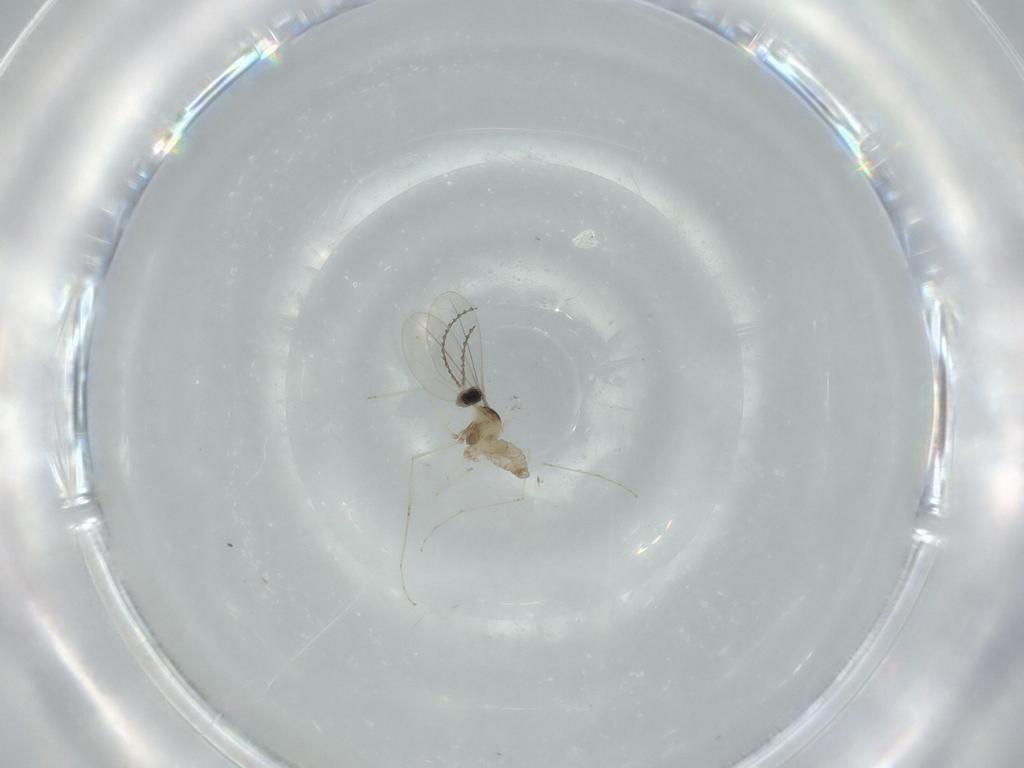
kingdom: Animalia
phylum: Arthropoda
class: Insecta
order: Diptera
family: Cecidomyiidae
